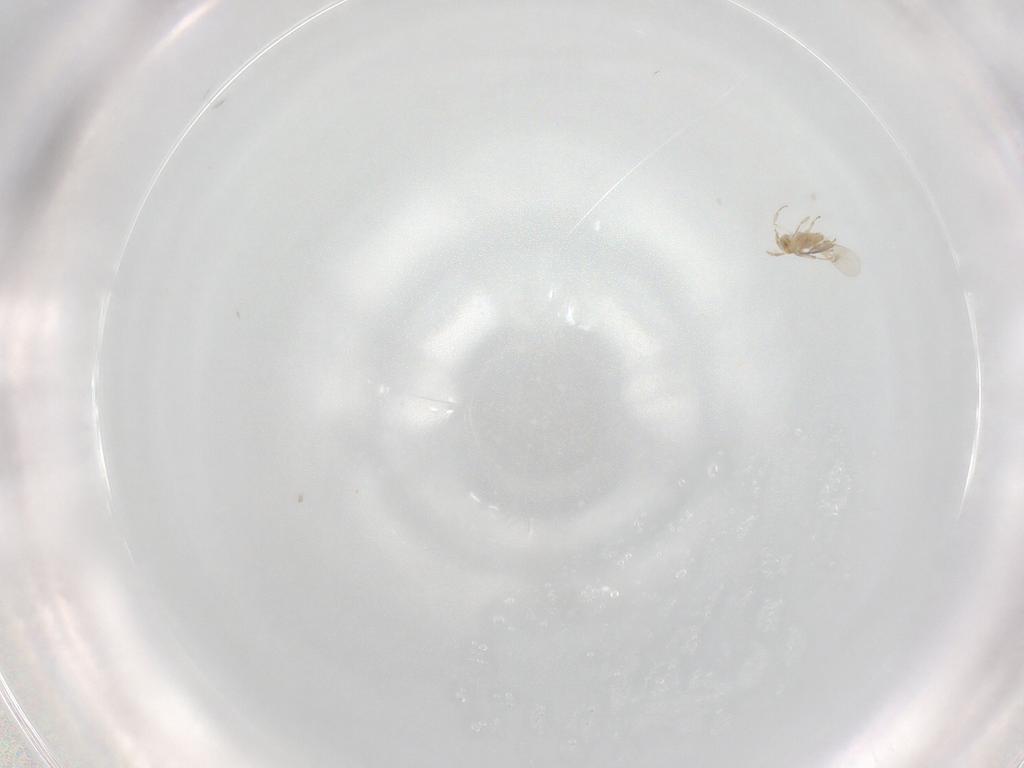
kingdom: Animalia
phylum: Arthropoda
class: Insecta
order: Hymenoptera
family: Aphelinidae
